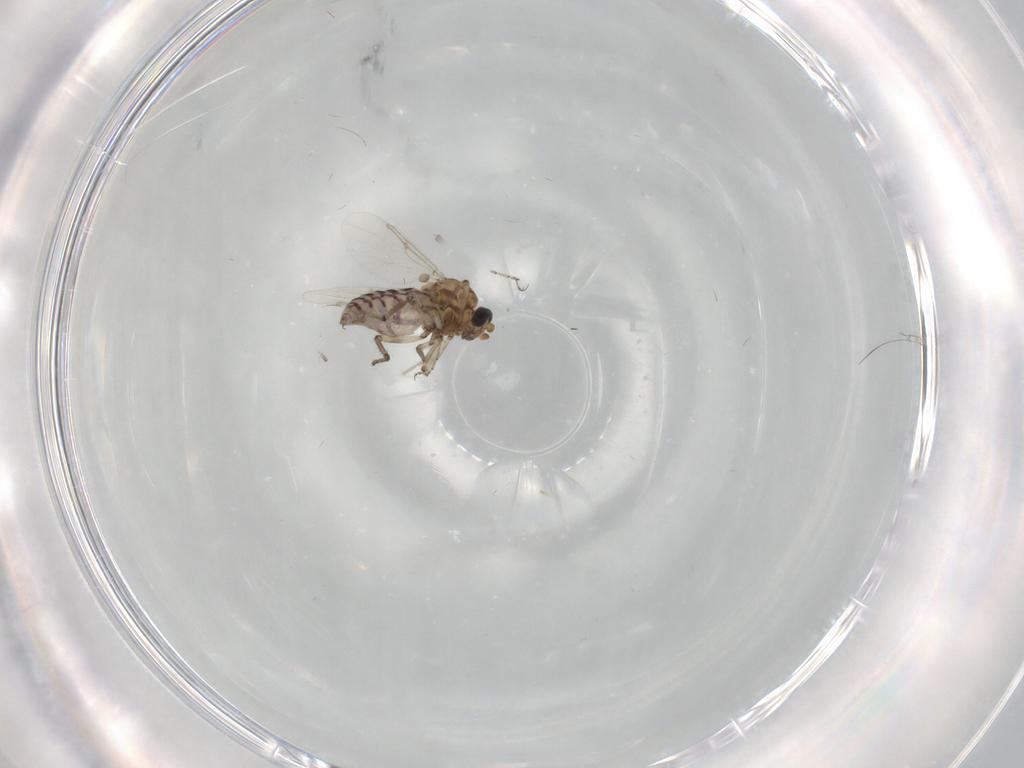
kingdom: Animalia
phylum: Arthropoda
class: Insecta
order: Diptera
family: Ceratopogonidae
